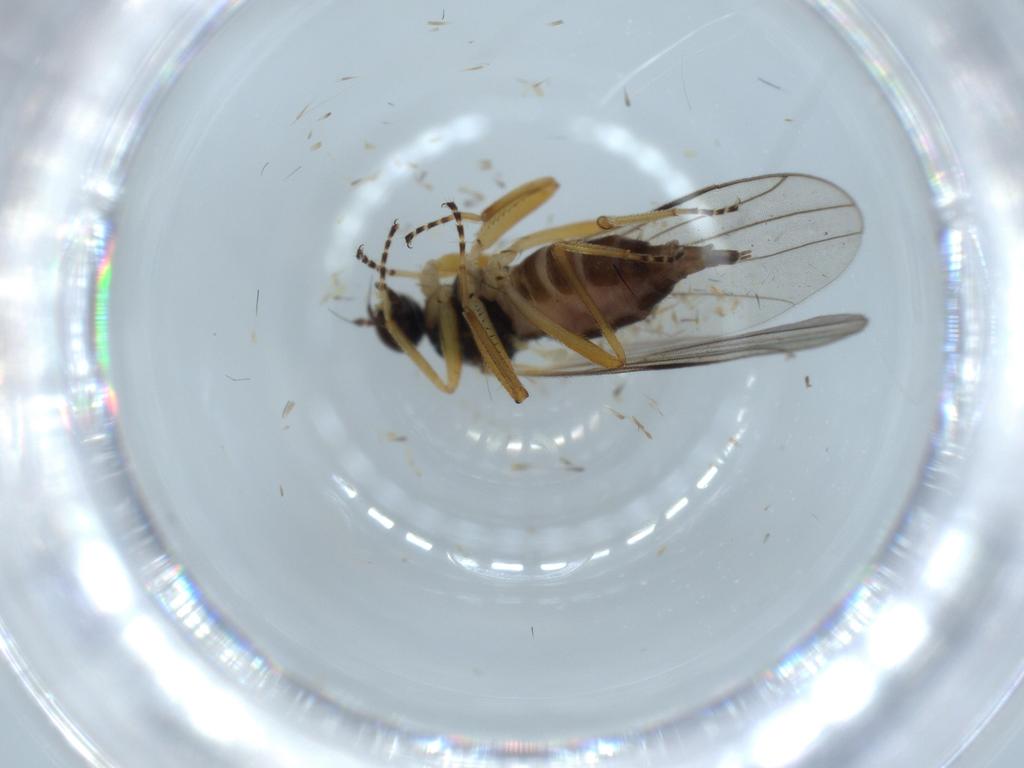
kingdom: Animalia
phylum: Arthropoda
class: Insecta
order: Diptera
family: Hybotidae
